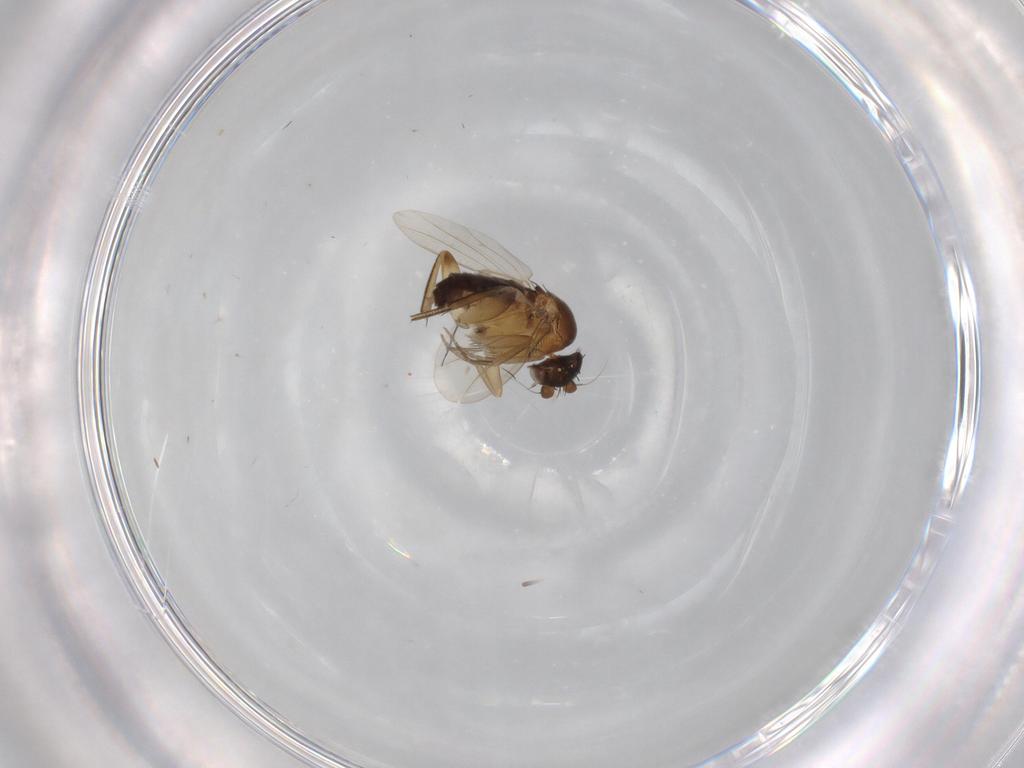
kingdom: Animalia
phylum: Arthropoda
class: Insecta
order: Diptera
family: Phoridae
